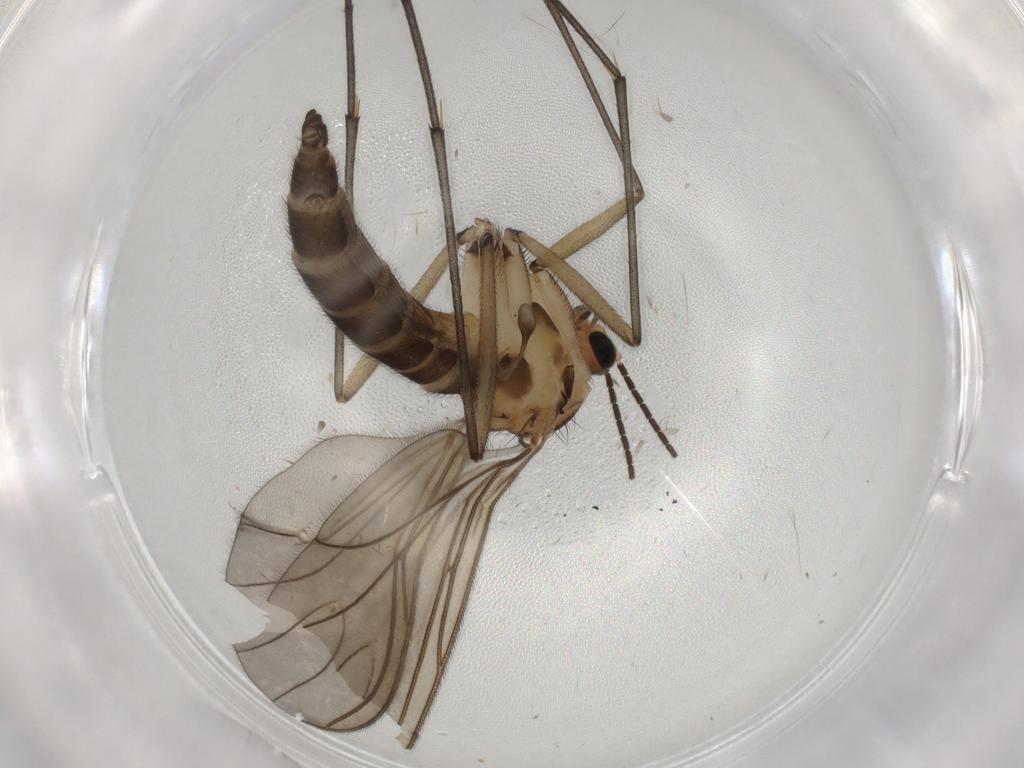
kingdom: Animalia
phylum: Arthropoda
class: Insecta
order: Diptera
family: Sciaridae
